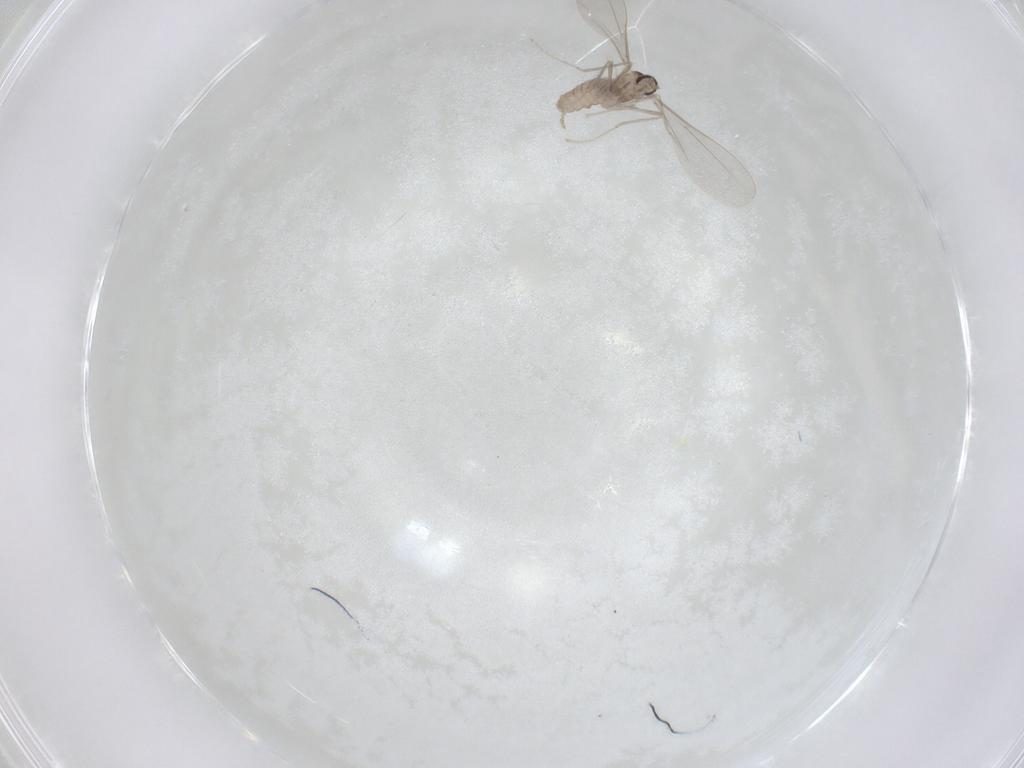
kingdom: Animalia
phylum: Arthropoda
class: Insecta
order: Diptera
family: Cecidomyiidae
